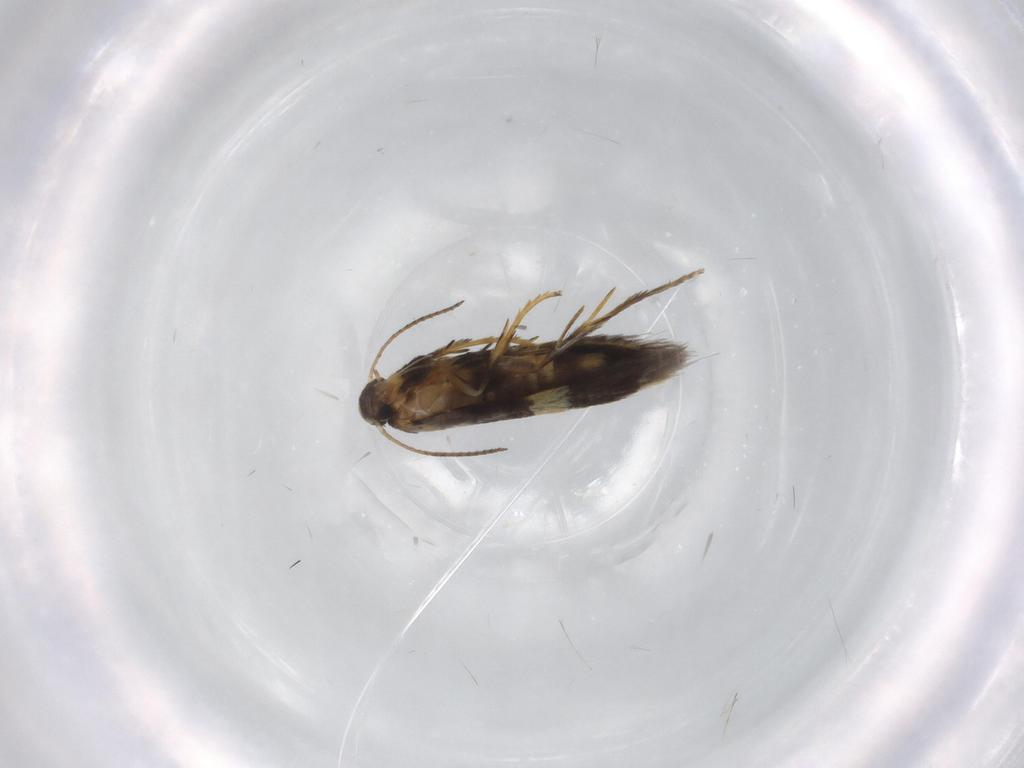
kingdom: Animalia
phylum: Arthropoda
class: Insecta
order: Lepidoptera
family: Heliozelidae
